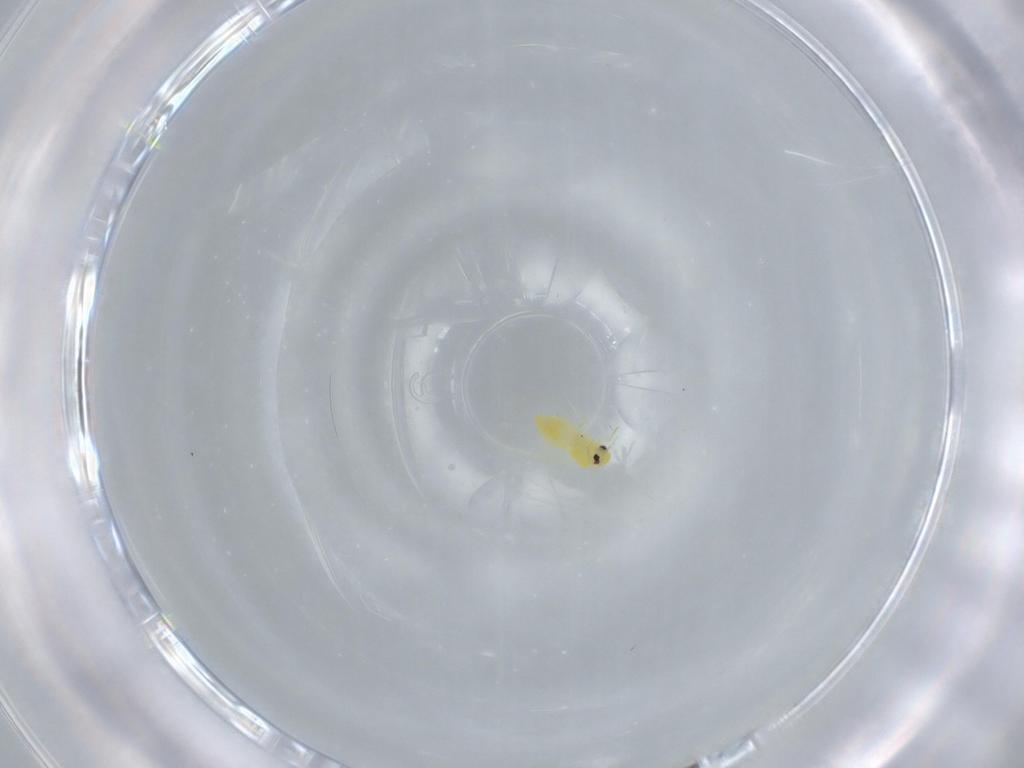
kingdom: Animalia
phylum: Arthropoda
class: Insecta
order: Hemiptera
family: Aleyrodidae
